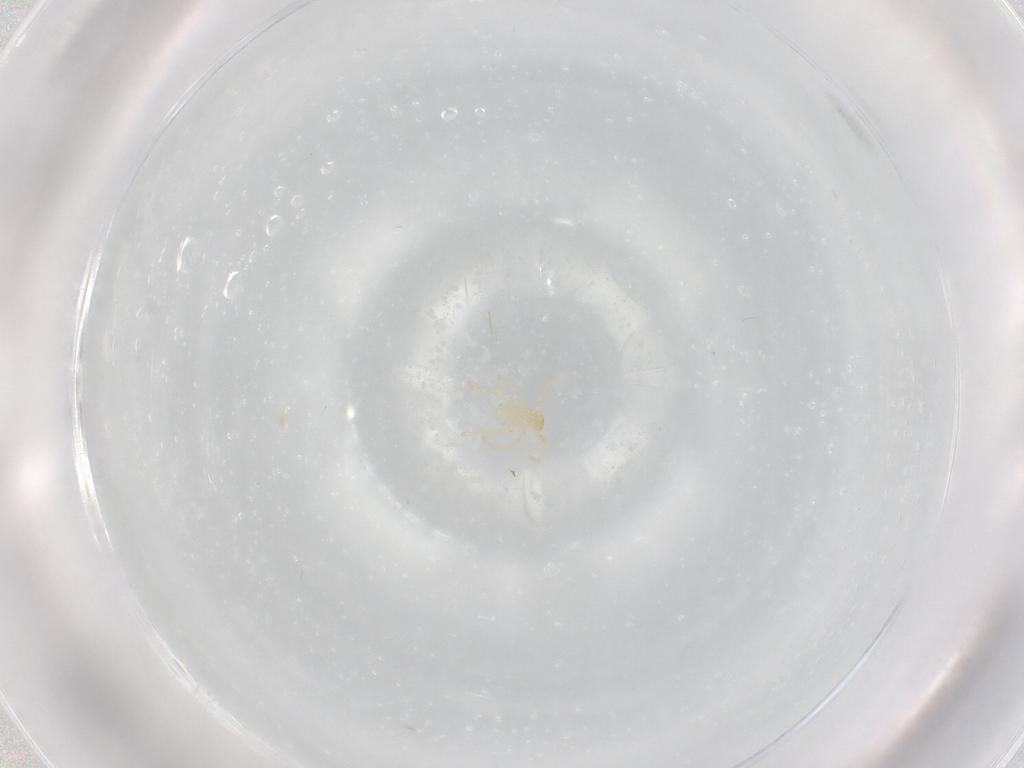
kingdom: Animalia
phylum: Arthropoda
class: Arachnida
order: Trombidiformes
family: Erythraeidae
